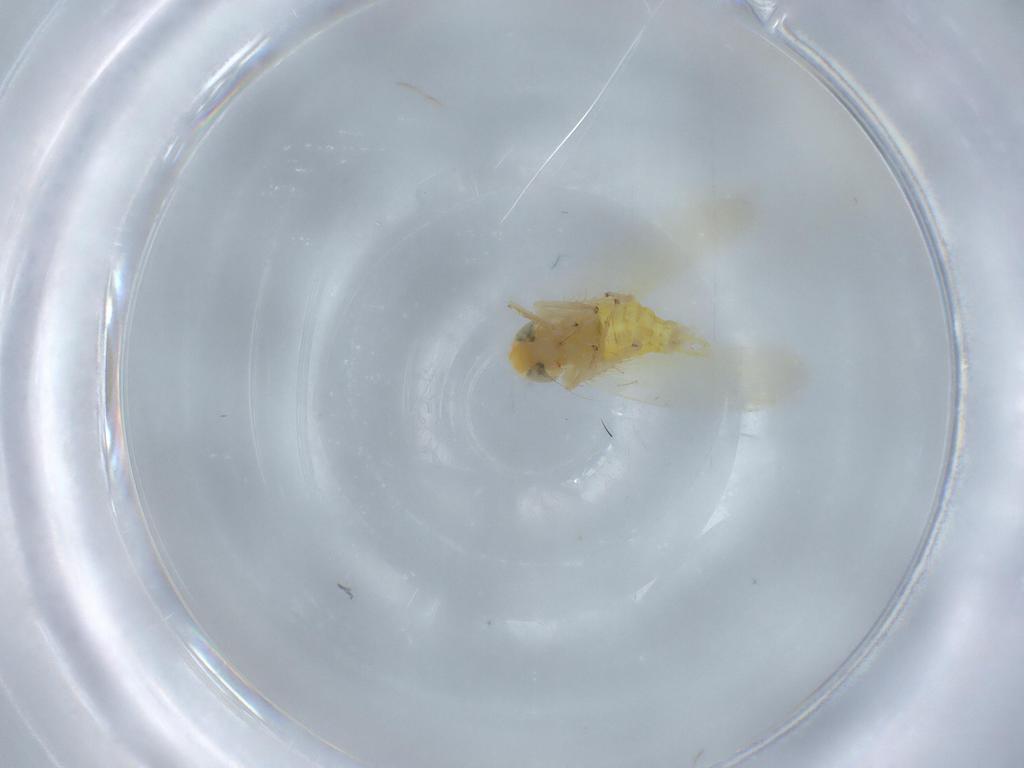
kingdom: Animalia
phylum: Arthropoda
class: Insecta
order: Hemiptera
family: Cicadellidae
